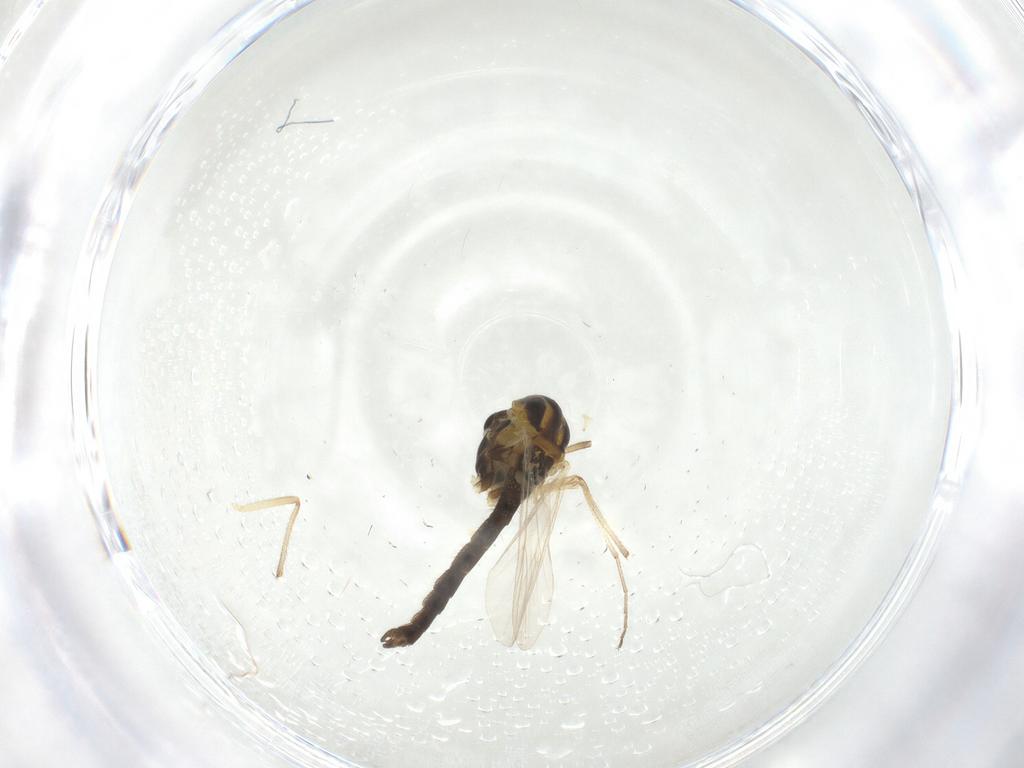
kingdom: Animalia
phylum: Arthropoda
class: Insecta
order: Diptera
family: Chironomidae
